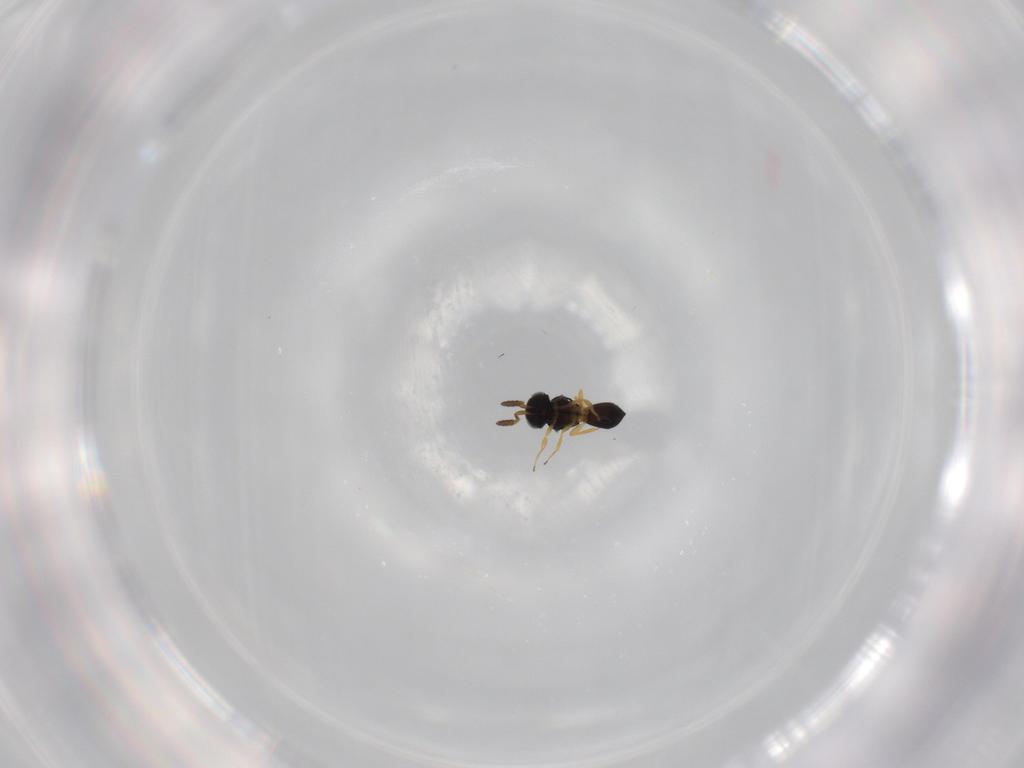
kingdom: Animalia
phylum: Arthropoda
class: Insecta
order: Hymenoptera
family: Scelionidae
